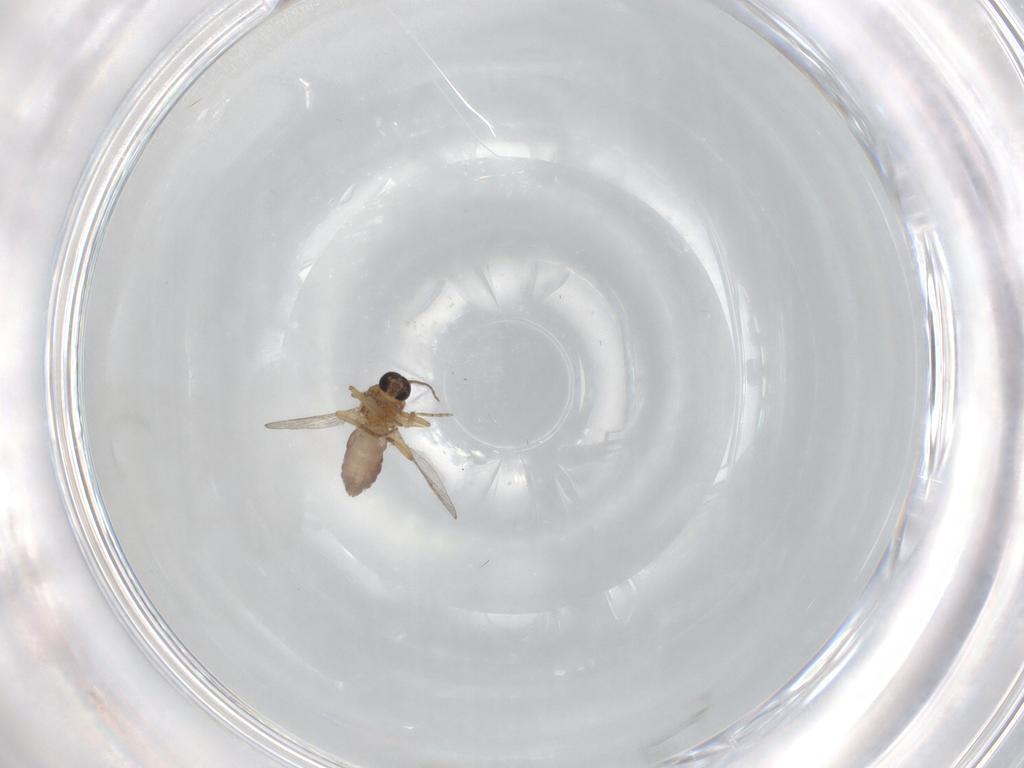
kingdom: Animalia
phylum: Arthropoda
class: Insecta
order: Diptera
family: Ceratopogonidae
